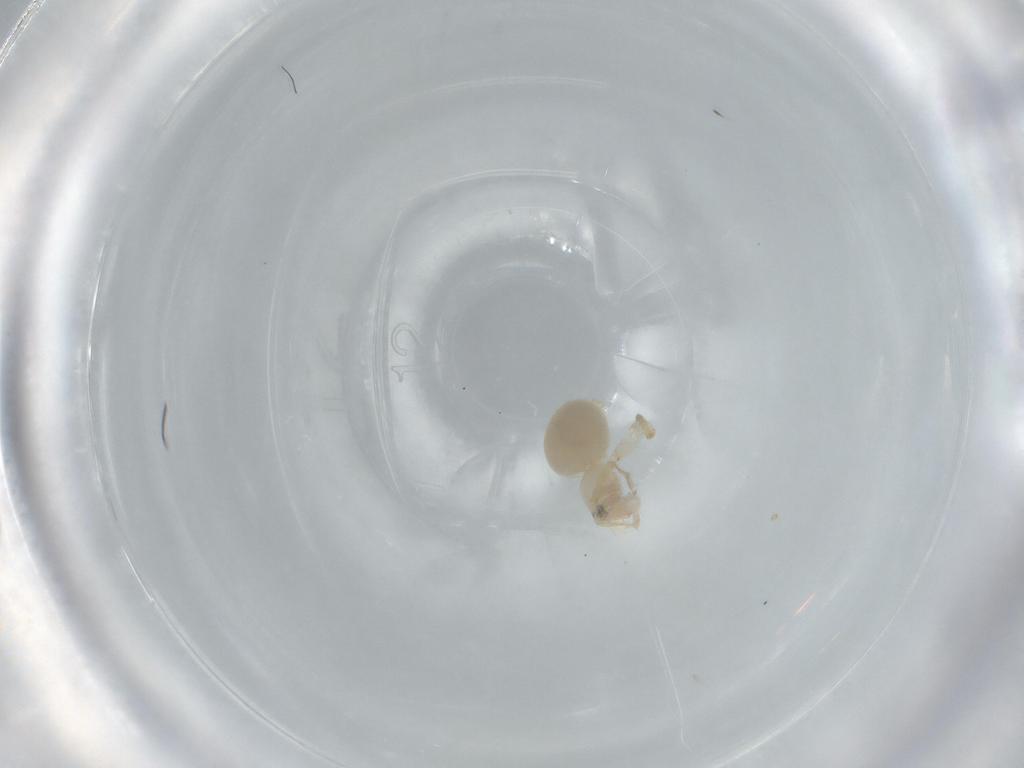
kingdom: Animalia
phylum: Arthropoda
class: Arachnida
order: Araneae
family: Oonopidae
